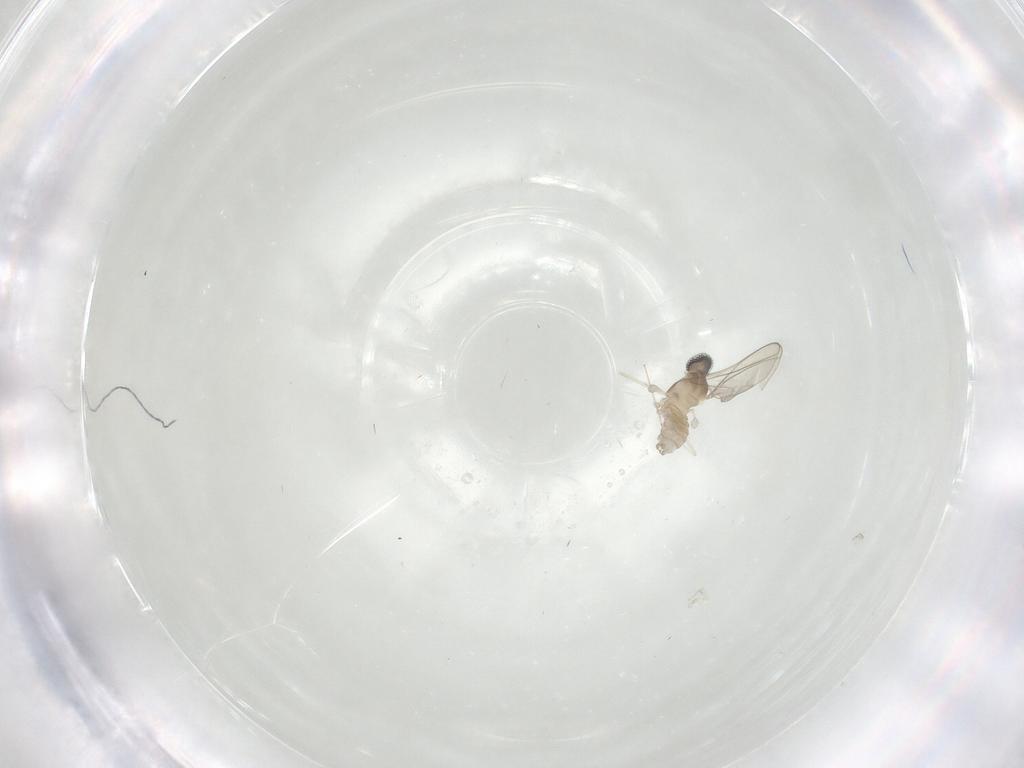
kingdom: Animalia
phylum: Arthropoda
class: Insecta
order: Diptera
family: Cecidomyiidae
